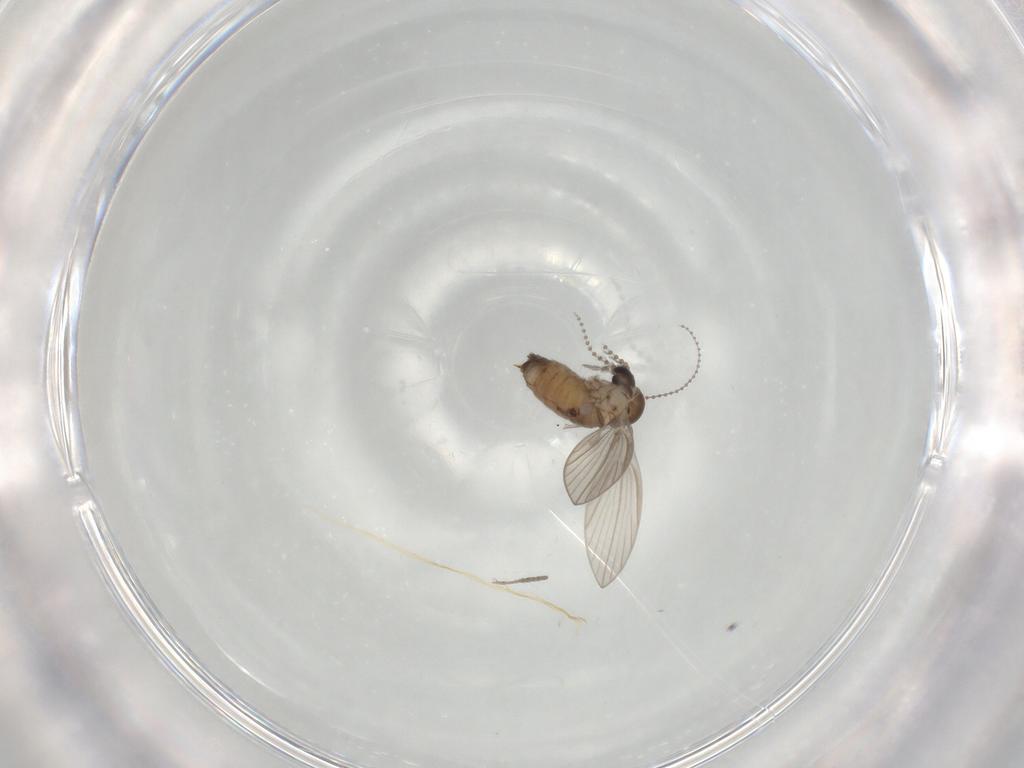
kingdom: Animalia
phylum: Arthropoda
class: Insecta
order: Diptera
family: Psychodidae
